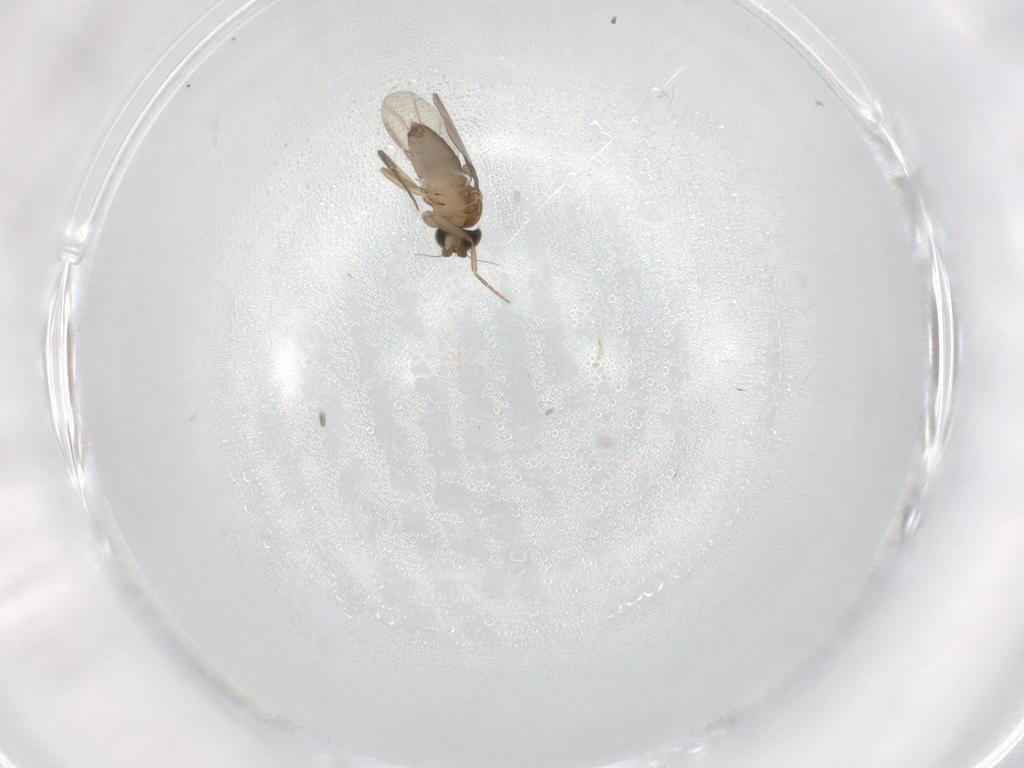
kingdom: Animalia
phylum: Arthropoda
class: Insecta
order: Diptera
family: Phoridae
